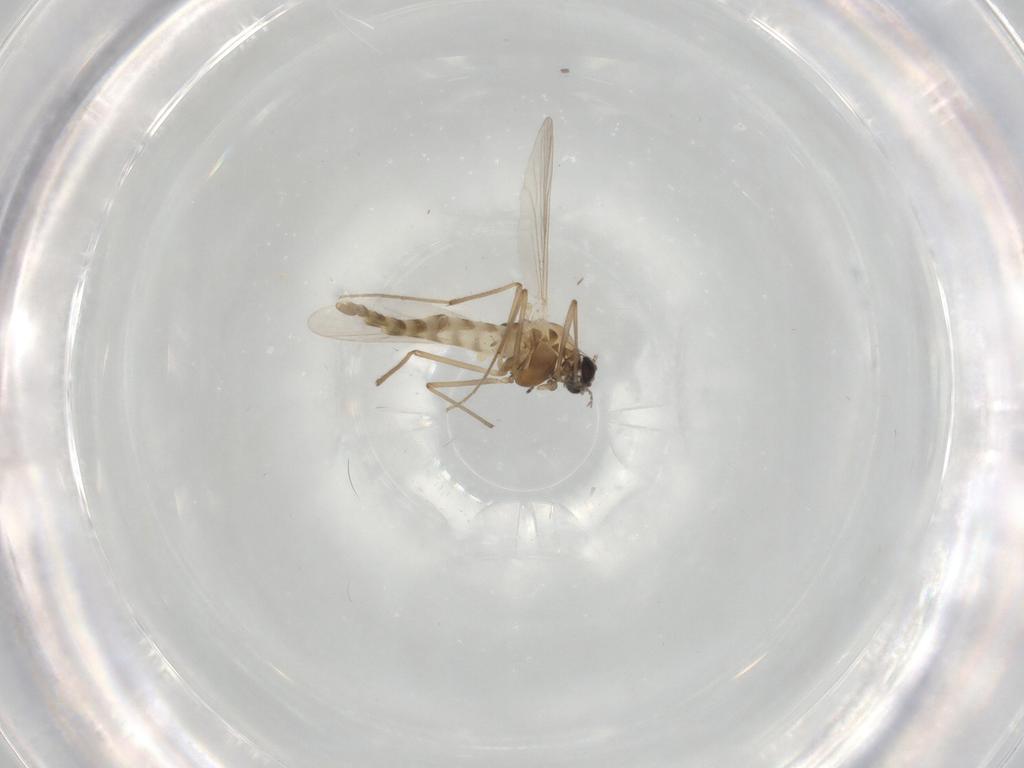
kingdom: Animalia
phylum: Arthropoda
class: Insecta
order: Diptera
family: Chironomidae
